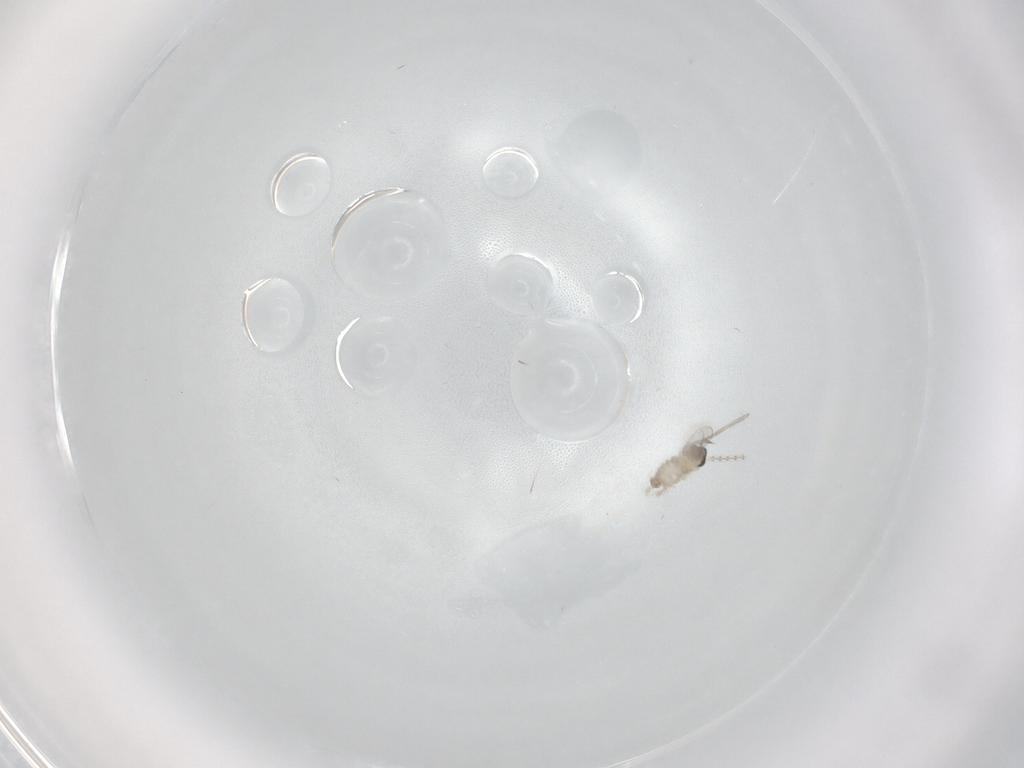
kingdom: Animalia
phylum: Arthropoda
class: Insecta
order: Diptera
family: Cecidomyiidae
